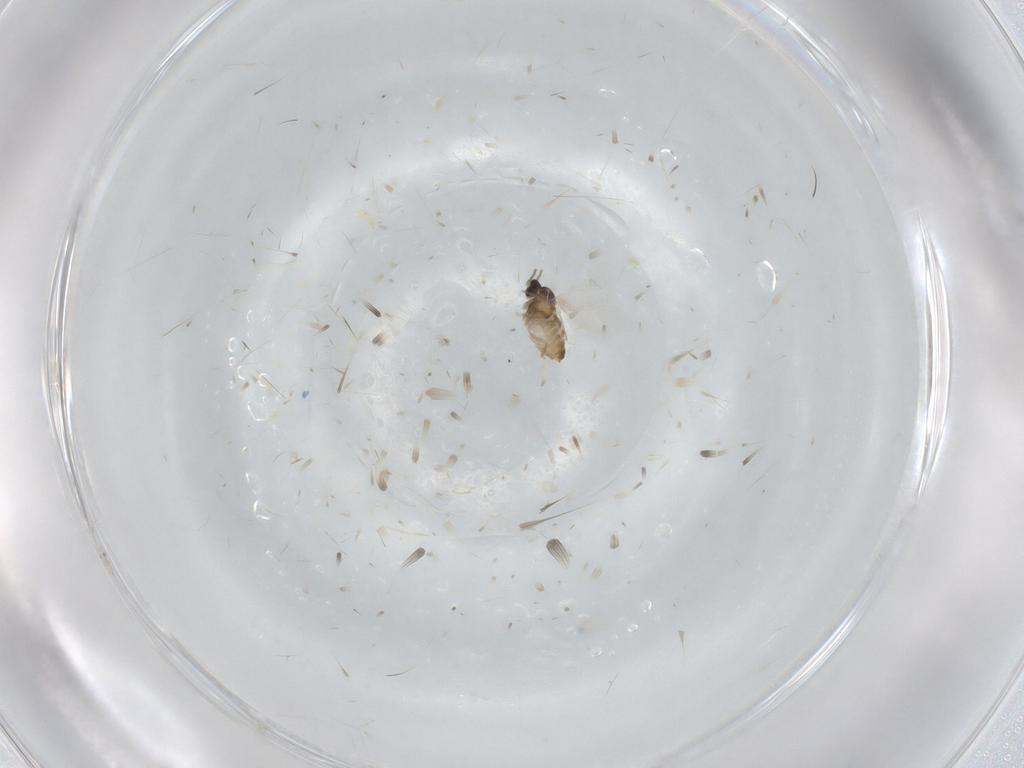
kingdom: Animalia
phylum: Arthropoda
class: Insecta
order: Diptera
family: Cecidomyiidae
